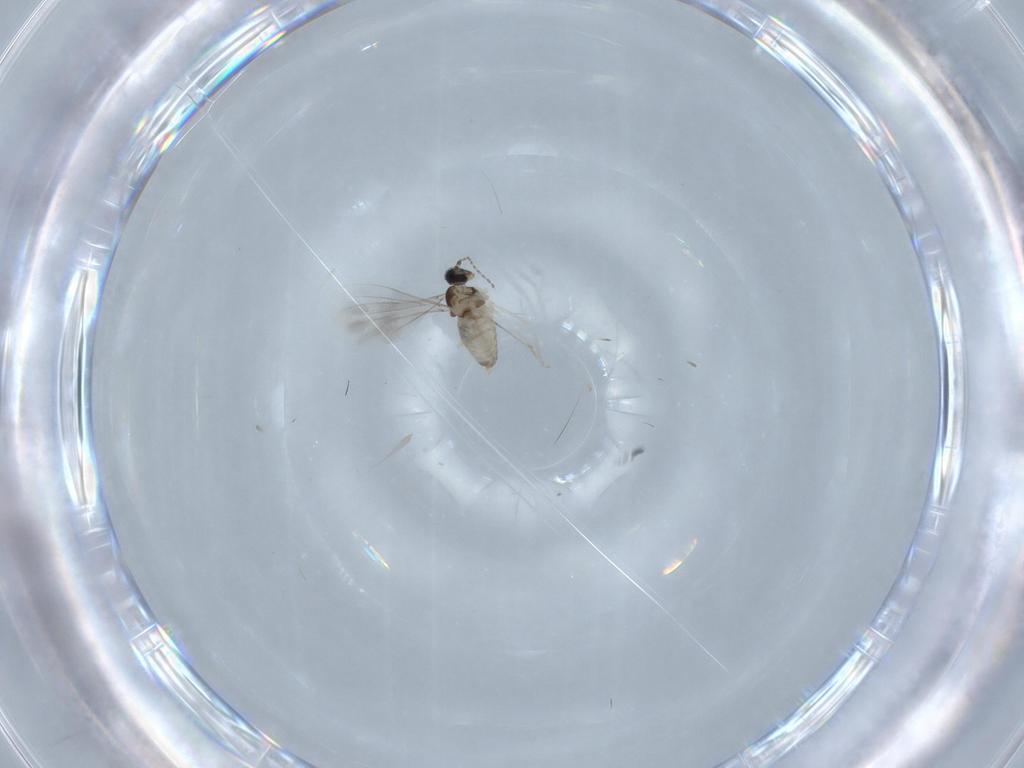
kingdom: Animalia
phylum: Arthropoda
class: Insecta
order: Diptera
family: Cecidomyiidae
